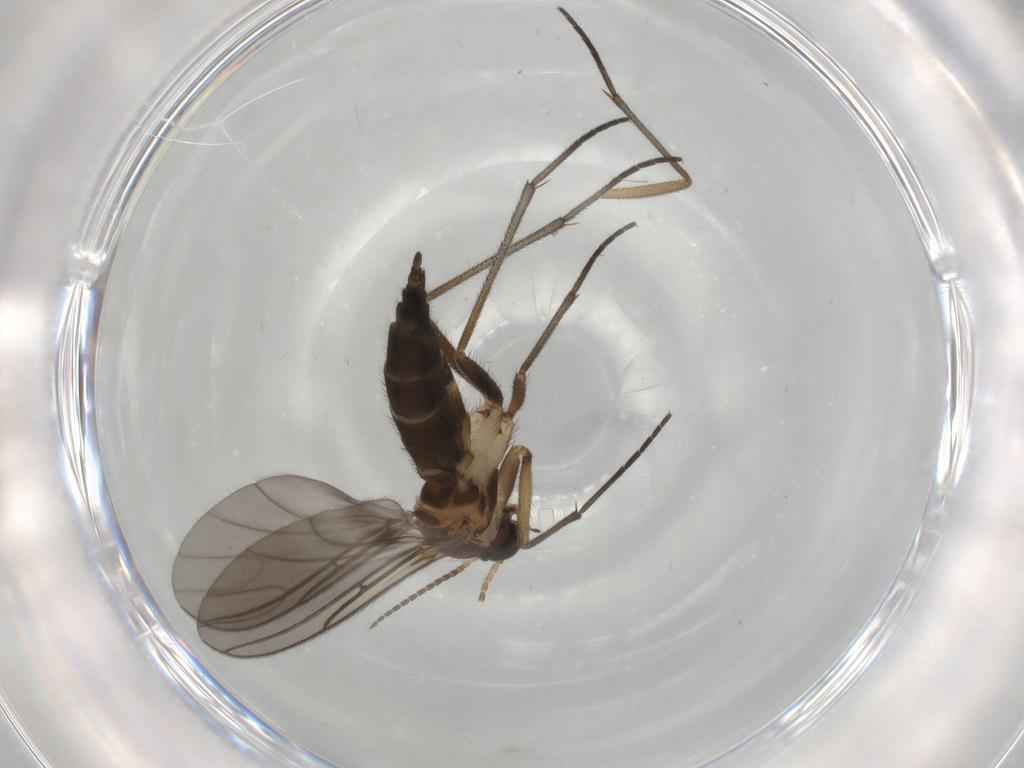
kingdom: Animalia
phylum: Arthropoda
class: Insecta
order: Diptera
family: Sciaridae
